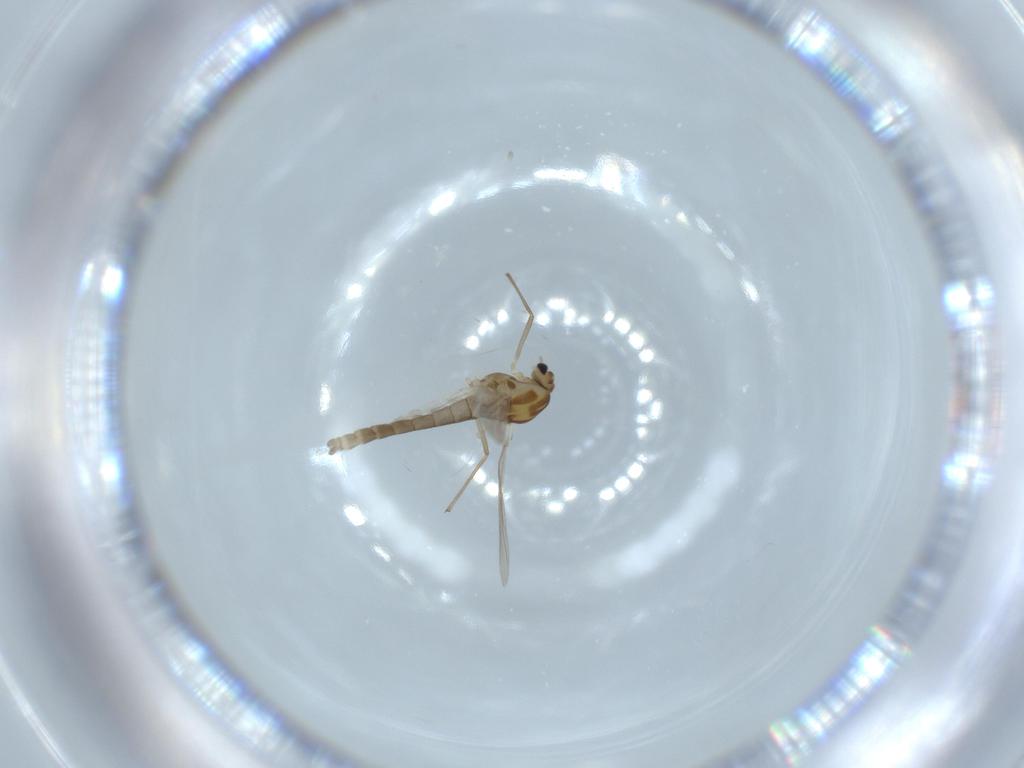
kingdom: Animalia
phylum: Arthropoda
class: Insecta
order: Diptera
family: Chironomidae
